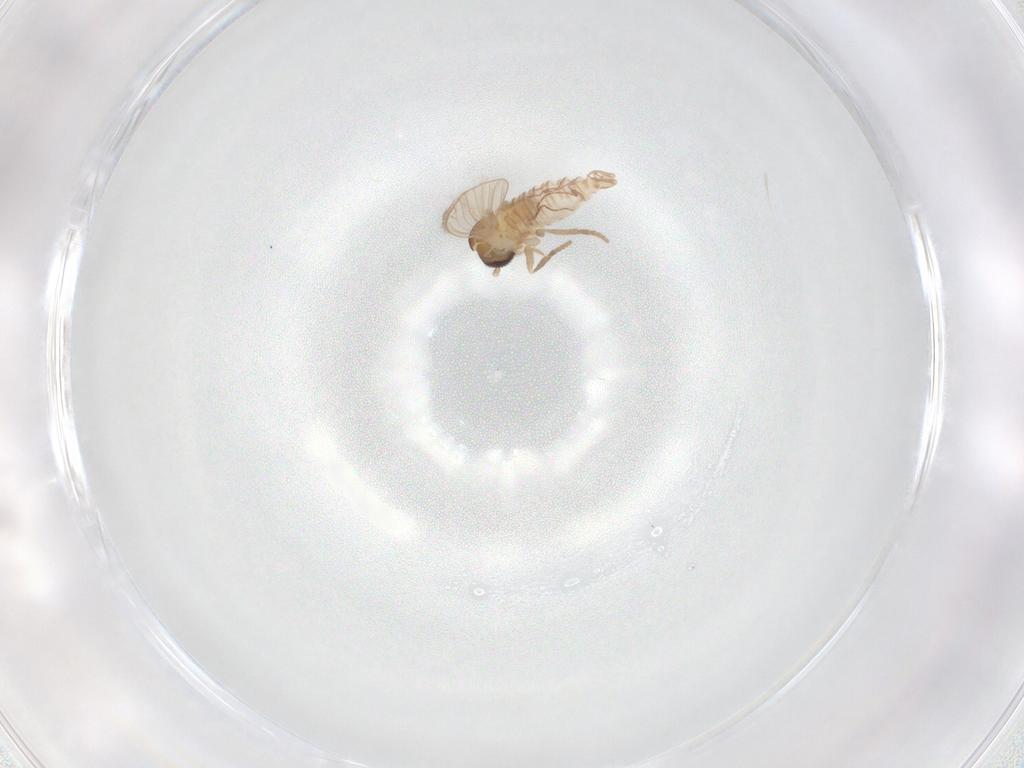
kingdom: Animalia
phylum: Arthropoda
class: Insecta
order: Diptera
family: Psychodidae
